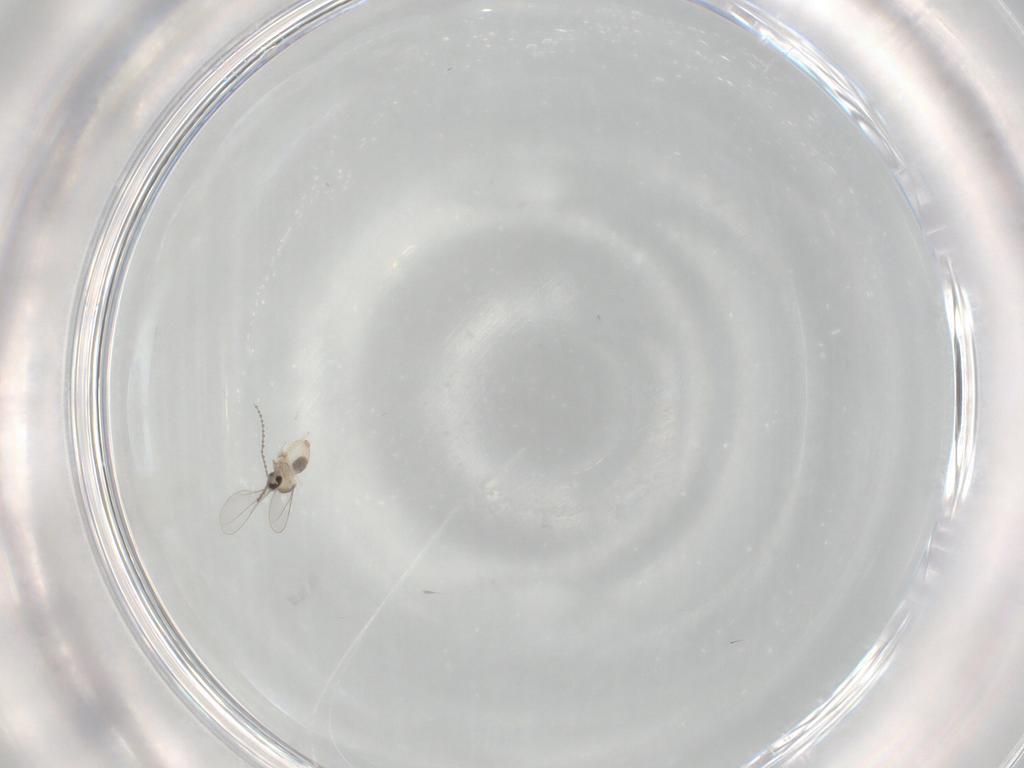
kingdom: Animalia
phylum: Arthropoda
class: Insecta
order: Diptera
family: Cecidomyiidae
